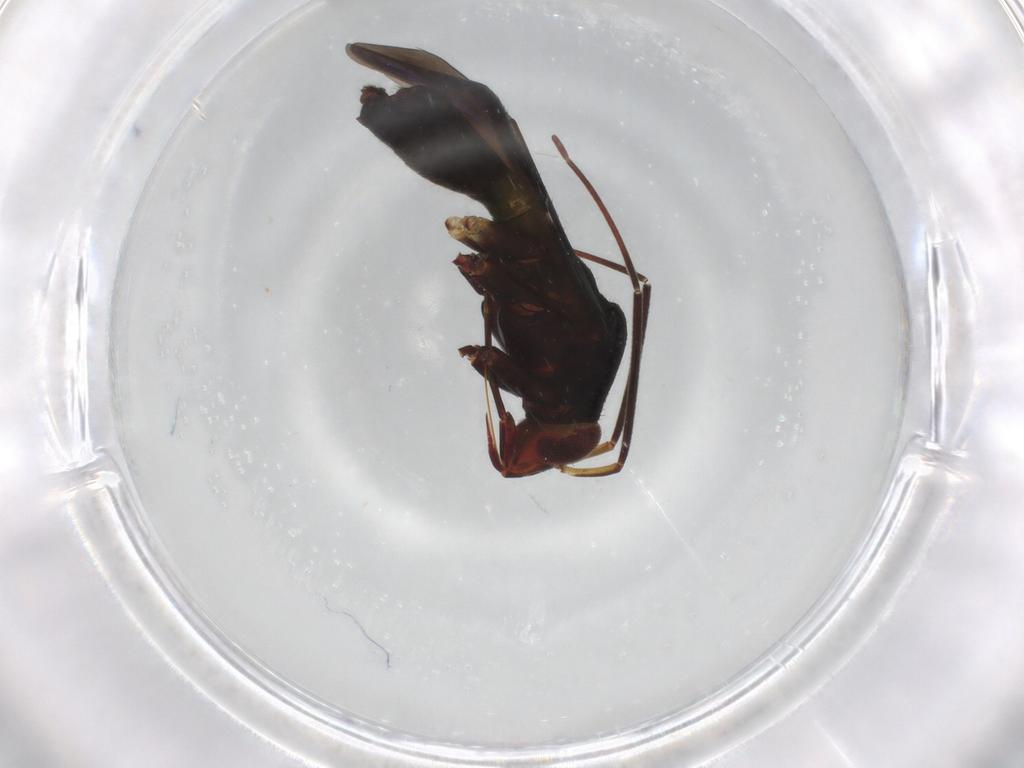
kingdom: Animalia
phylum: Arthropoda
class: Insecta
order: Hemiptera
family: Miridae
